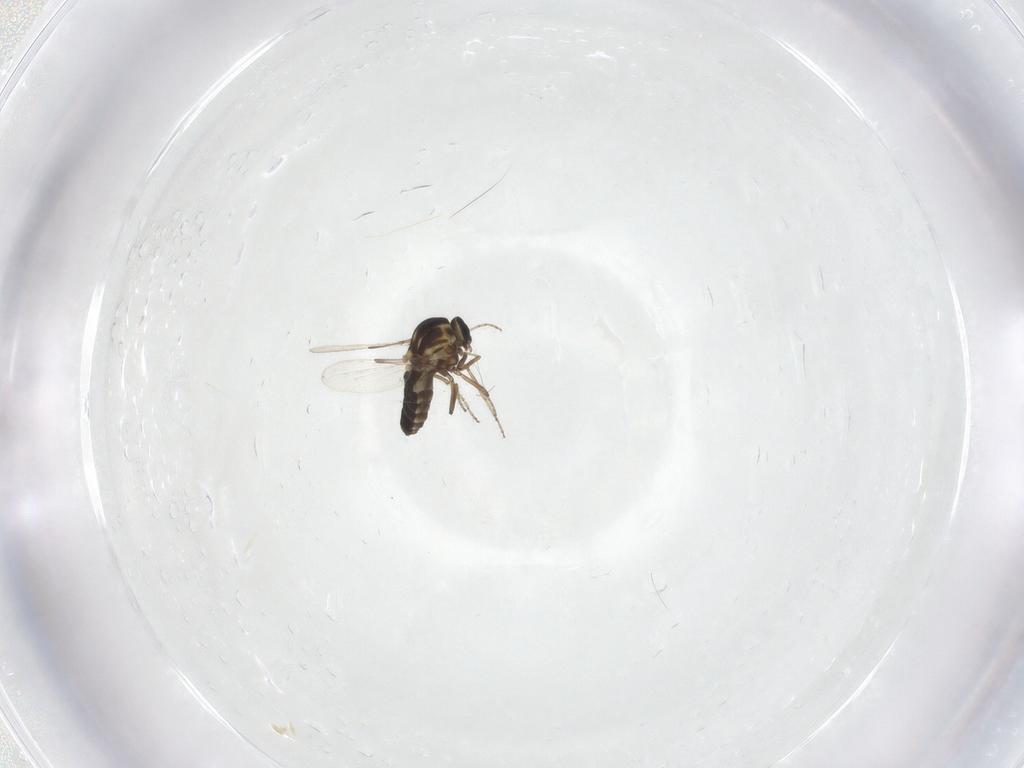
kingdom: Animalia
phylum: Arthropoda
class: Insecta
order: Diptera
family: Ceratopogonidae
